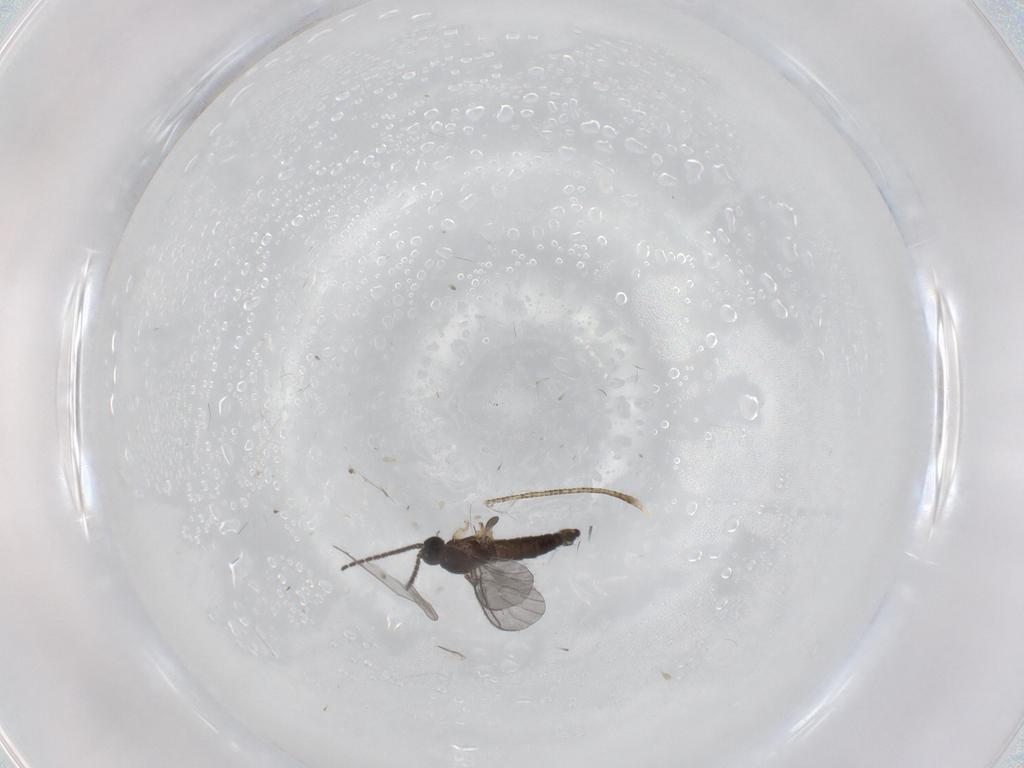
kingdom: Animalia
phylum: Arthropoda
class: Insecta
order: Diptera
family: Sciaridae
